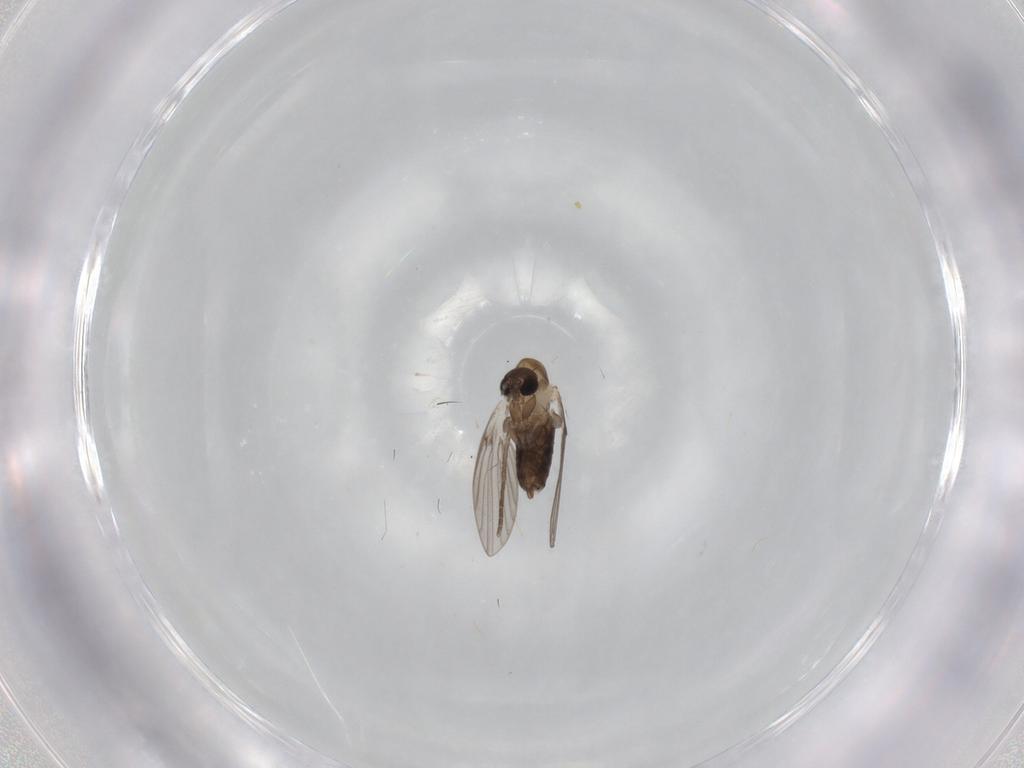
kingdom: Animalia
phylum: Arthropoda
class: Insecta
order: Diptera
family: Psychodidae
